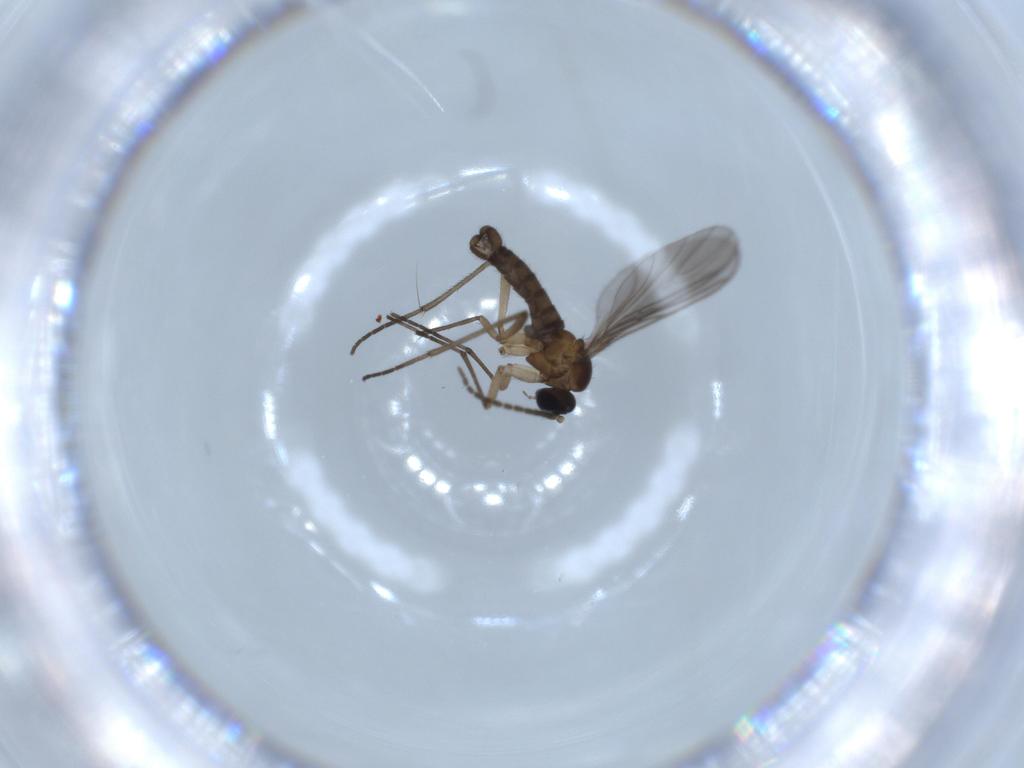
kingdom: Animalia
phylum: Arthropoda
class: Insecta
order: Diptera
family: Sciaridae
